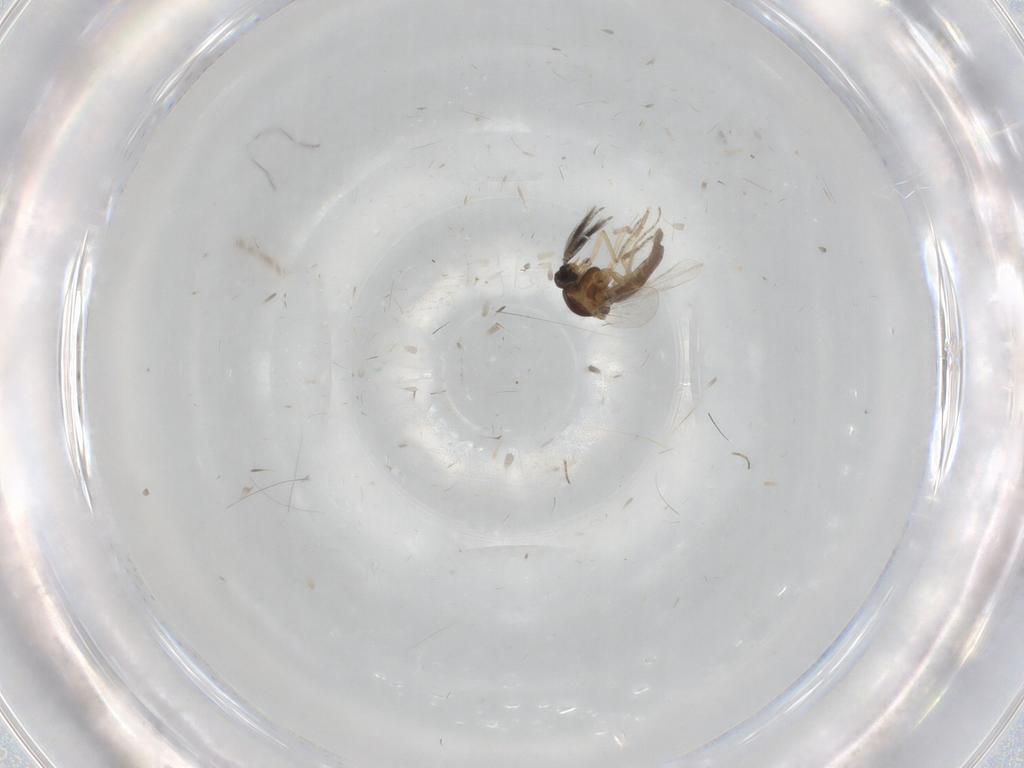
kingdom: Animalia
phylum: Arthropoda
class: Insecta
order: Diptera
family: Ceratopogonidae
